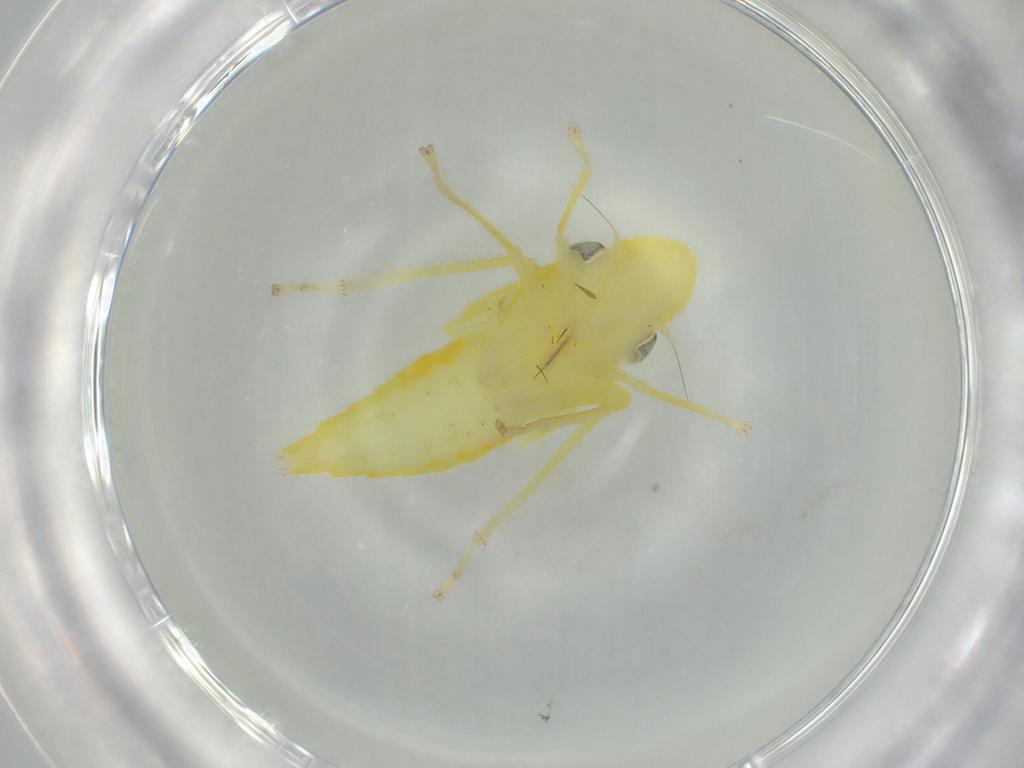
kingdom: Animalia
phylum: Arthropoda
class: Insecta
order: Hemiptera
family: Cicadellidae
